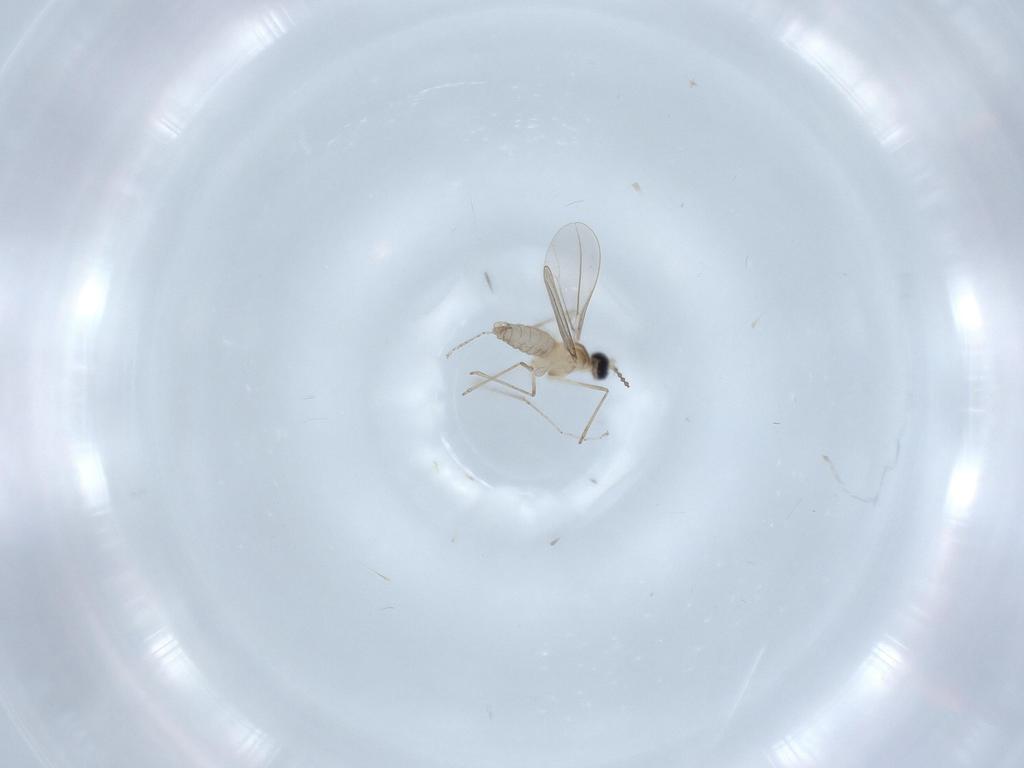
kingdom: Animalia
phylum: Arthropoda
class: Insecta
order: Diptera
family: Cecidomyiidae
